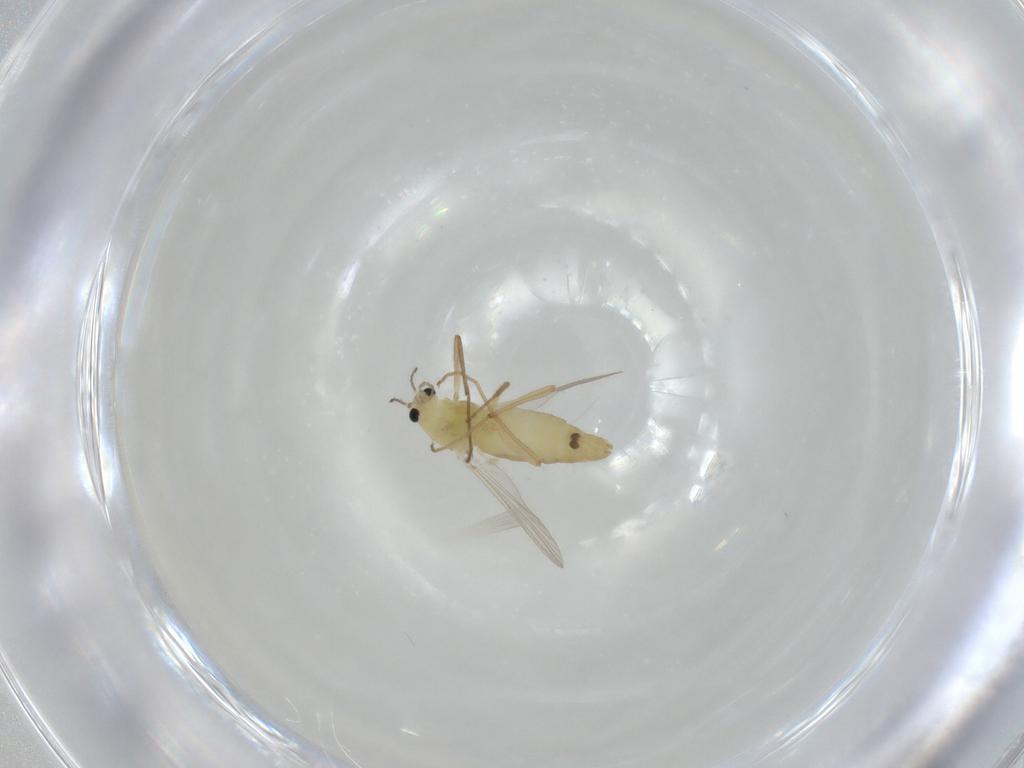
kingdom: Animalia
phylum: Arthropoda
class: Insecta
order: Diptera
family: Chironomidae
